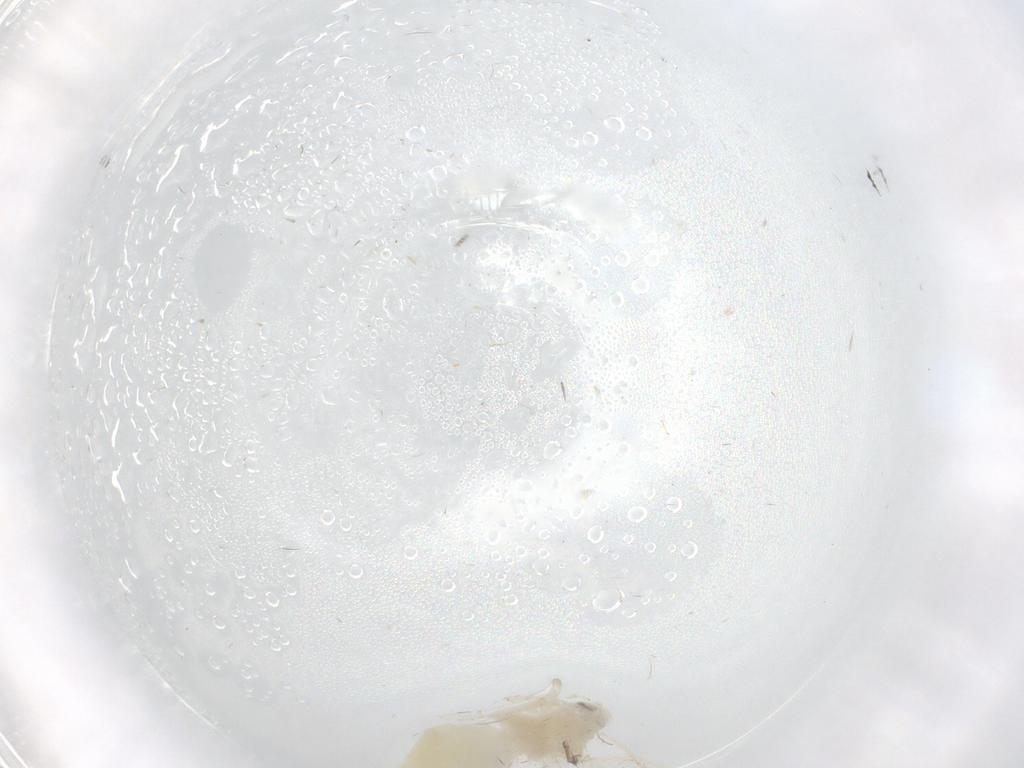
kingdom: Animalia
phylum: Arthropoda
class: Insecta
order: Hemiptera
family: Aleyrodidae
